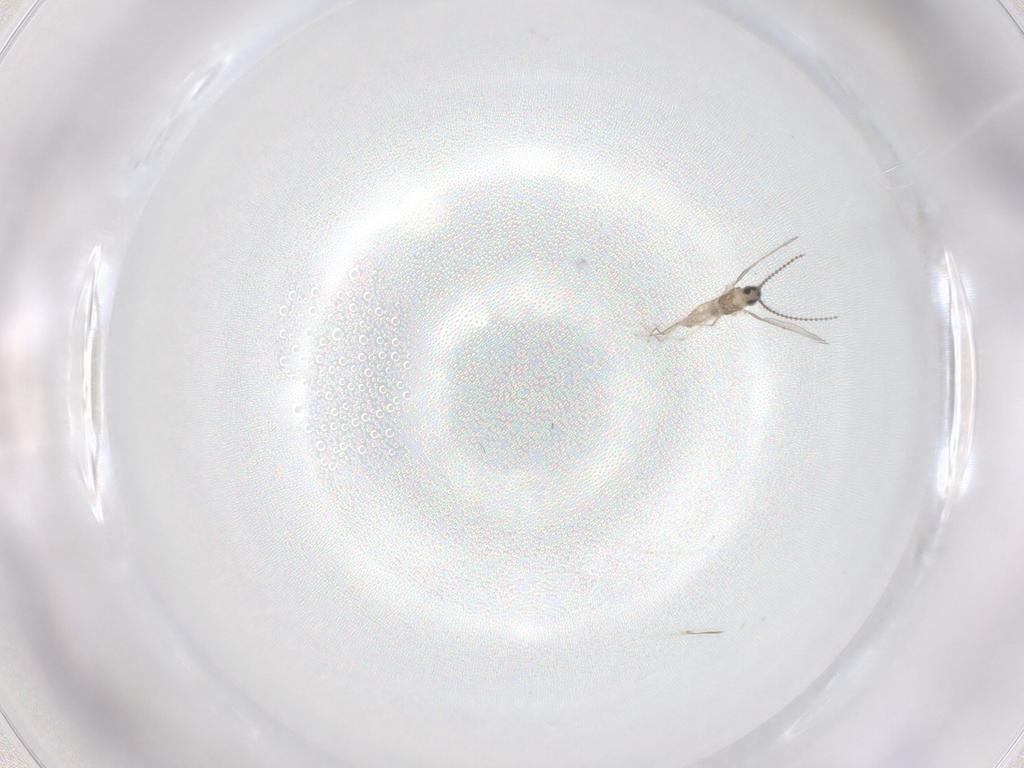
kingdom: Animalia
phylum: Arthropoda
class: Insecta
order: Diptera
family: Cecidomyiidae
